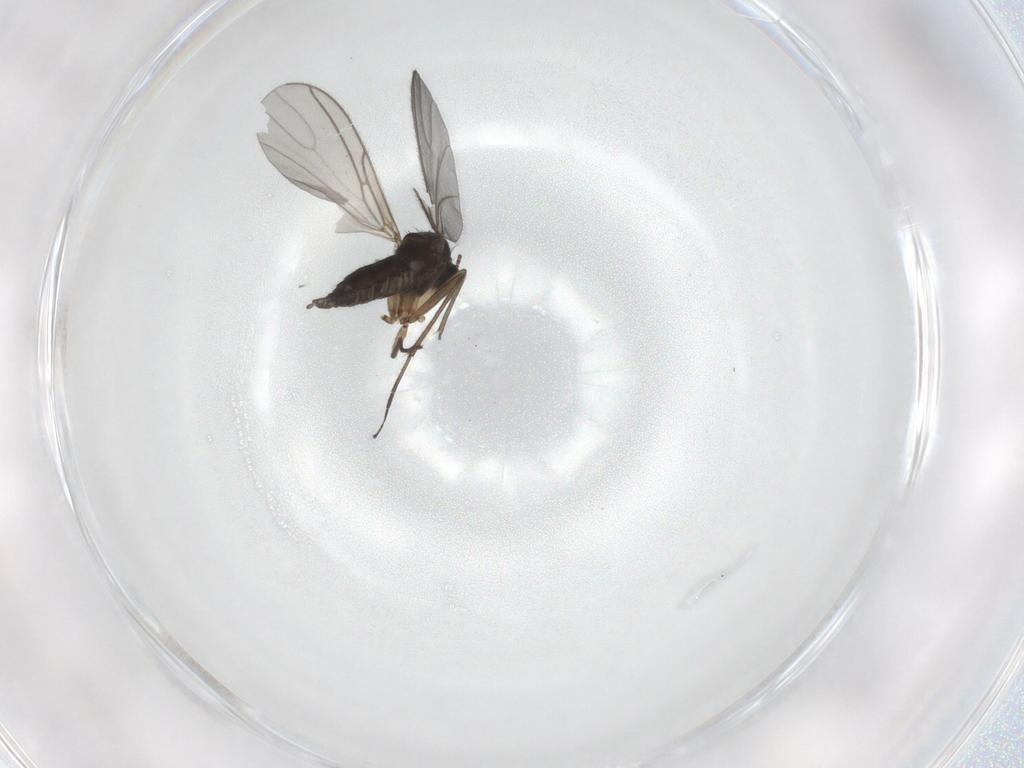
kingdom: Animalia
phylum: Arthropoda
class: Insecta
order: Diptera
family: Sciaridae
